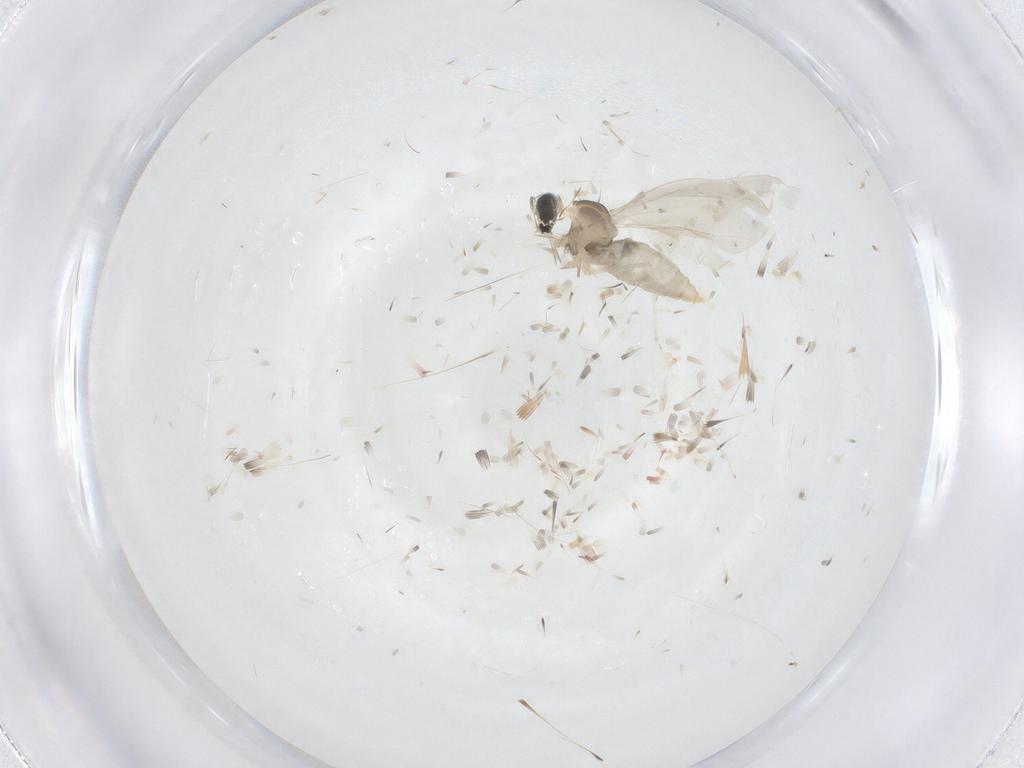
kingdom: Animalia
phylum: Arthropoda
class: Insecta
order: Diptera
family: Cecidomyiidae
